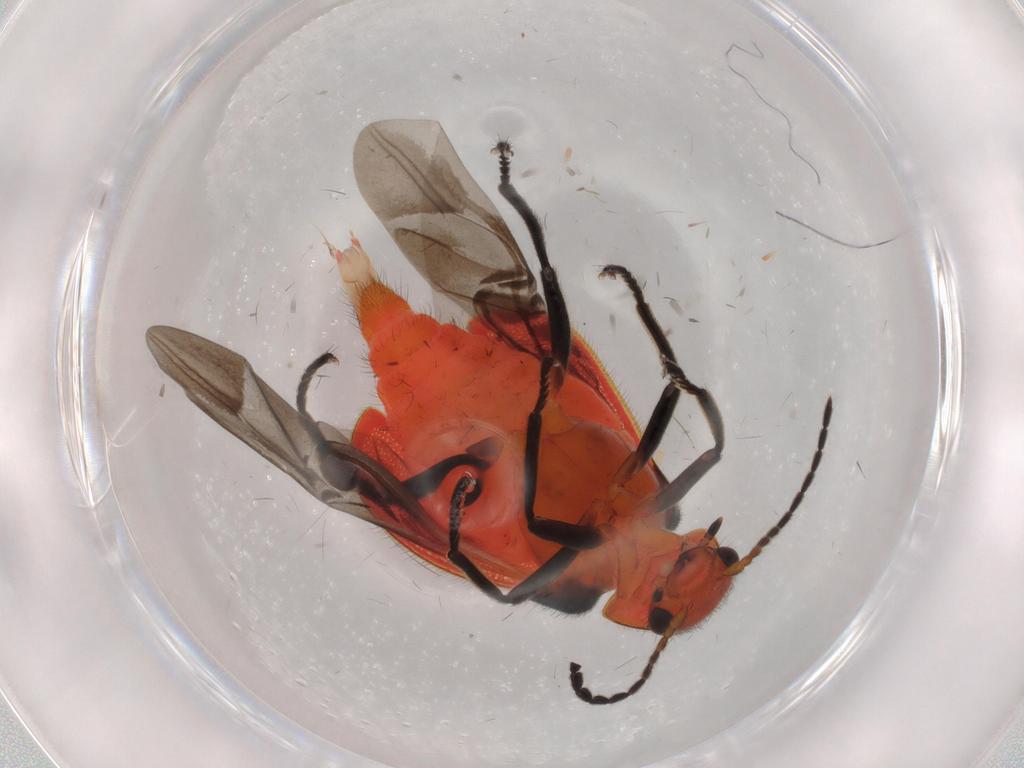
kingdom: Animalia
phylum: Arthropoda
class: Insecta
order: Coleoptera
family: Melyridae
